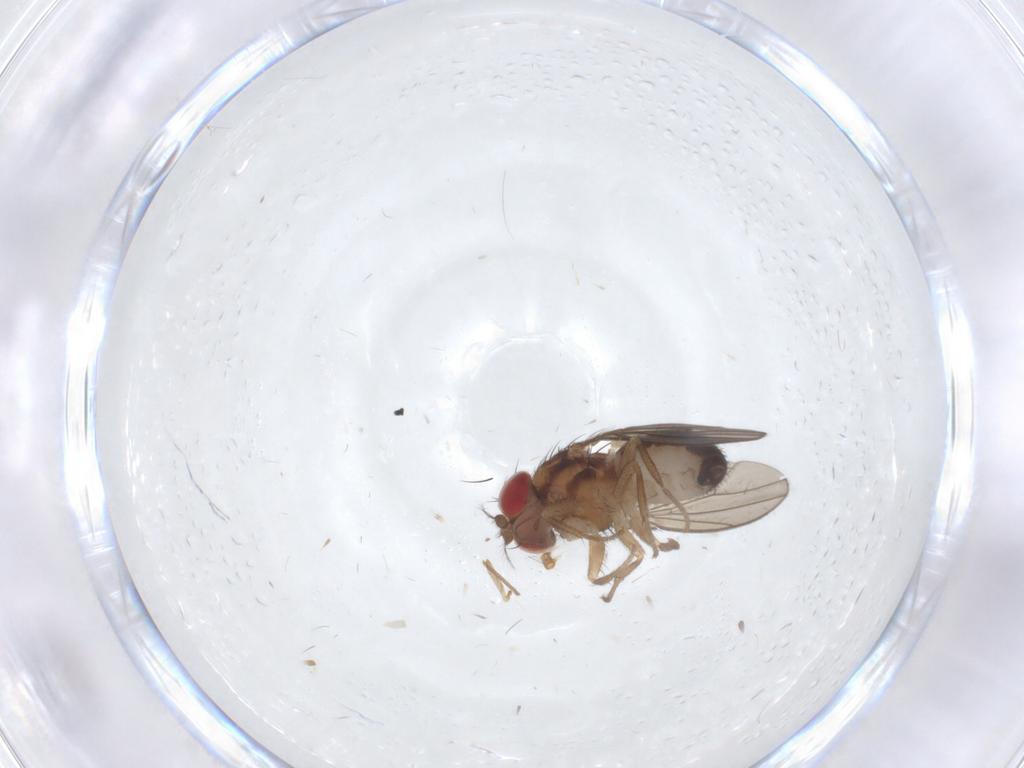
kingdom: Animalia
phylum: Arthropoda
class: Insecta
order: Diptera
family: Drosophilidae
